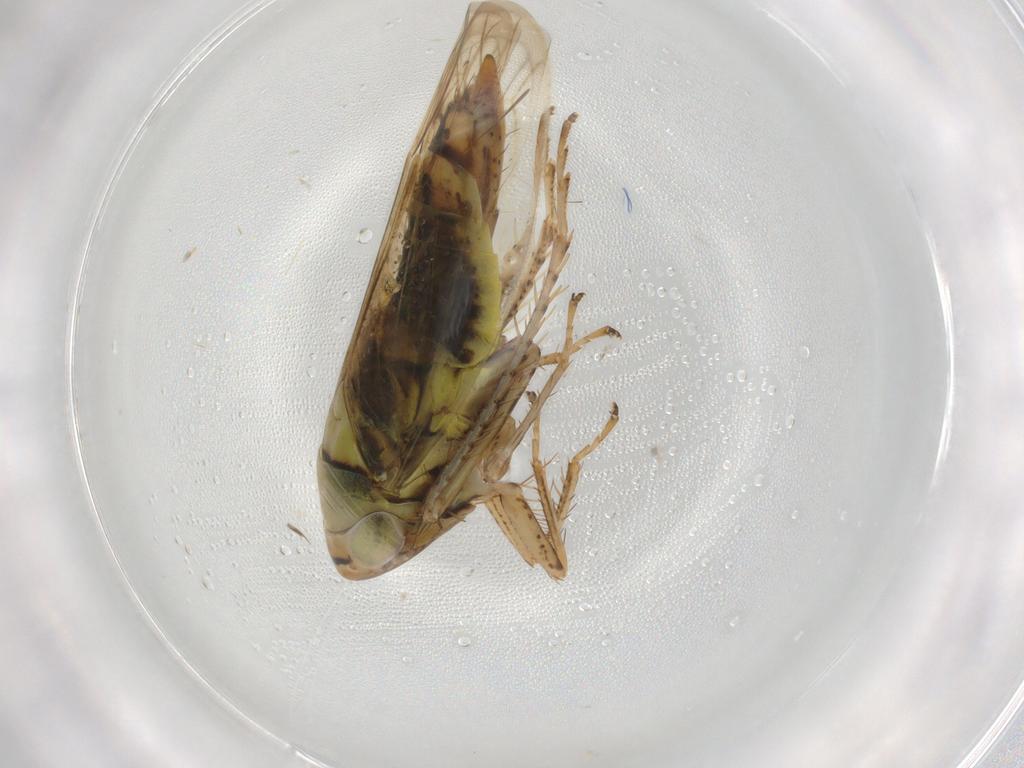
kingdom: Animalia
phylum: Arthropoda
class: Insecta
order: Hemiptera
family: Cicadellidae
